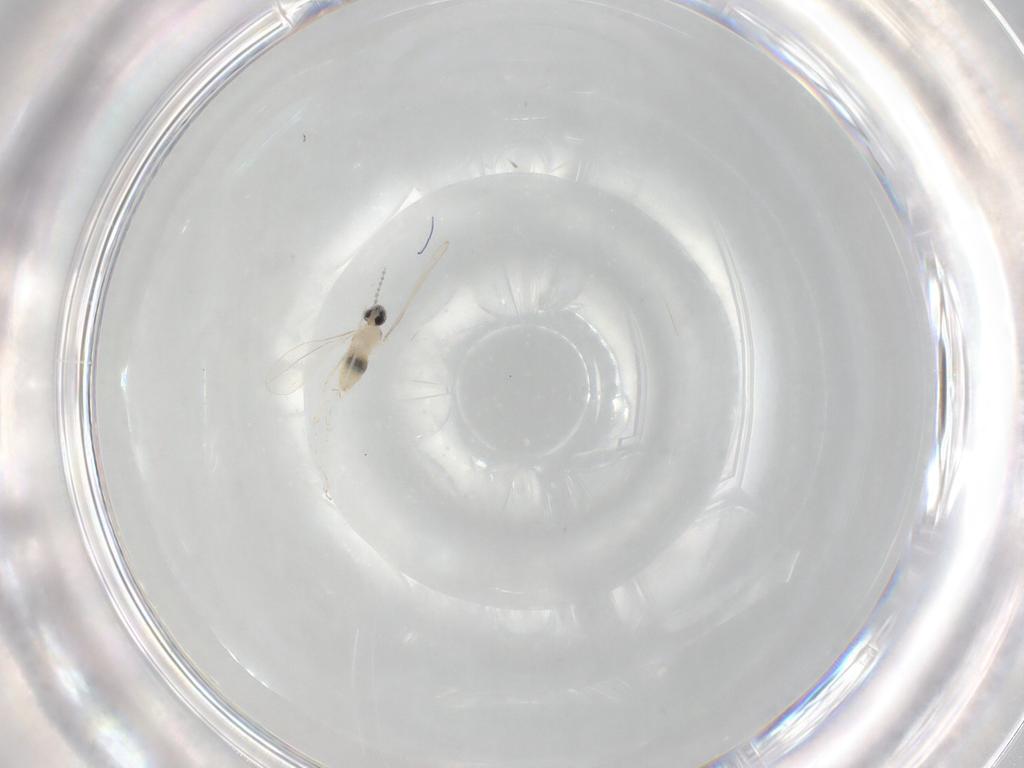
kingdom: Animalia
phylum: Arthropoda
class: Insecta
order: Diptera
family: Cecidomyiidae
